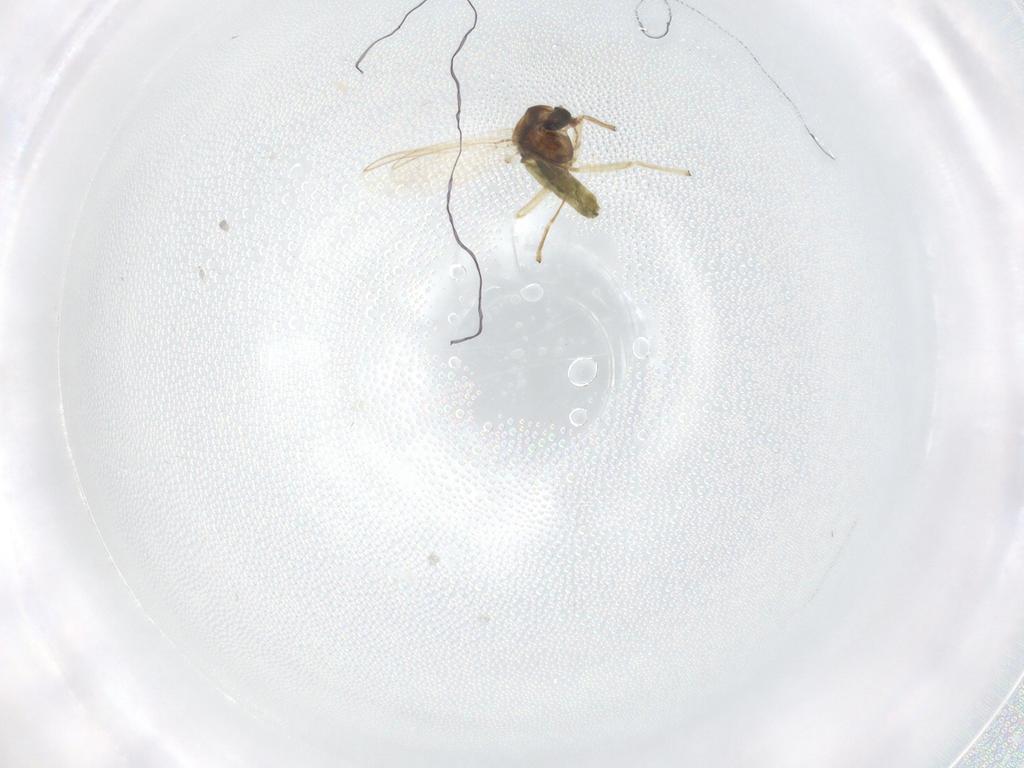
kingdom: Animalia
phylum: Arthropoda
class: Insecta
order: Diptera
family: Dolichopodidae
